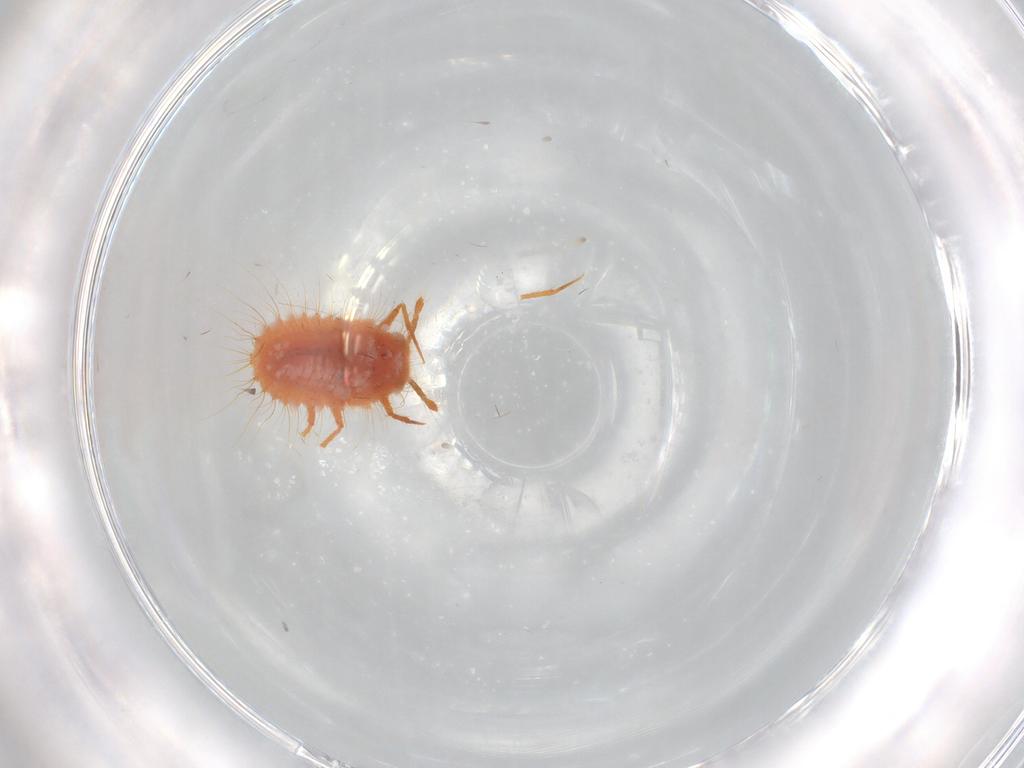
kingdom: Animalia
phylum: Arthropoda
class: Insecta
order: Hemiptera
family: Coccoidea_incertae_sedis
